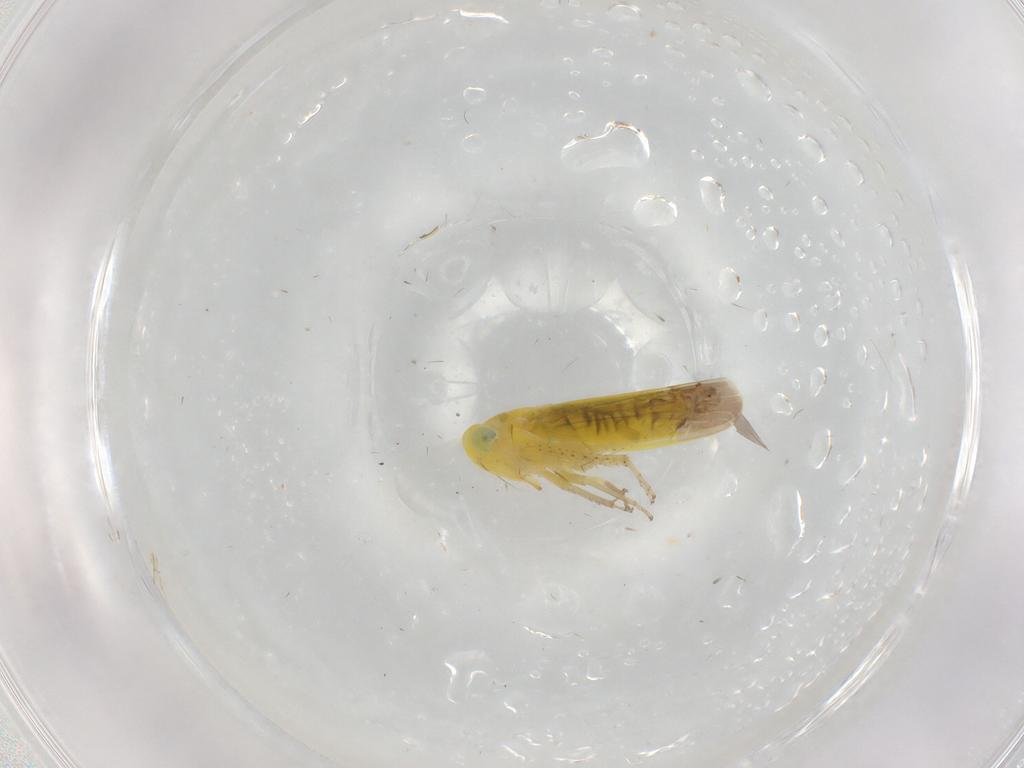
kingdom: Animalia
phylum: Arthropoda
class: Insecta
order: Hemiptera
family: Cicadellidae
